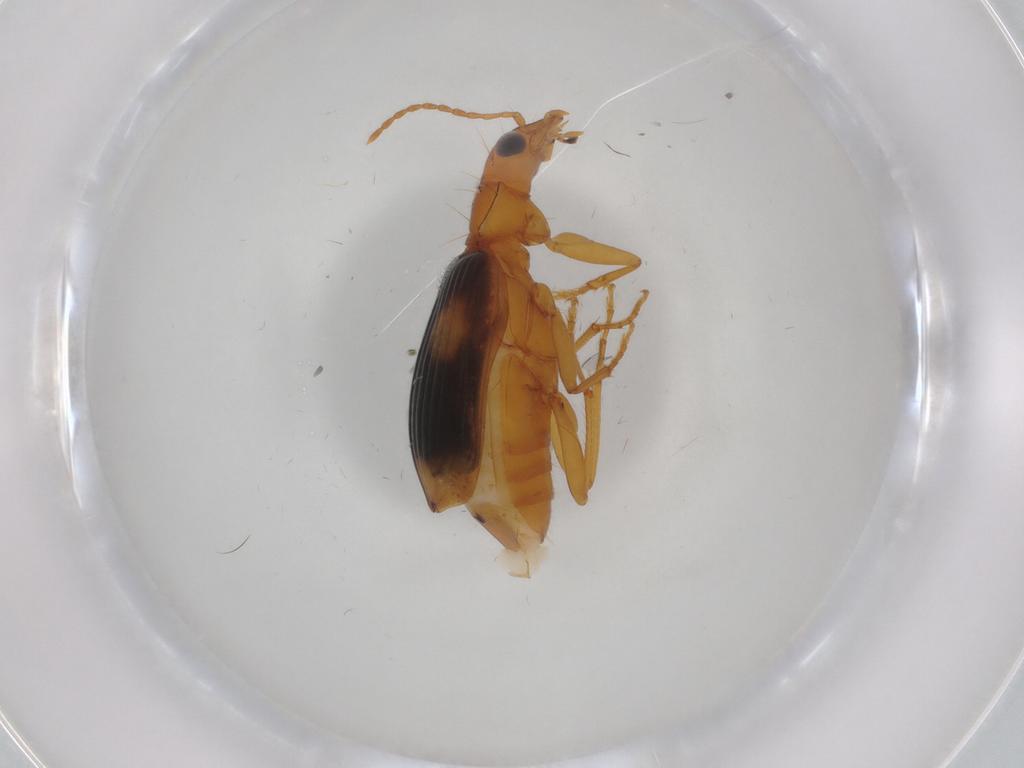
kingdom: Animalia
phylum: Arthropoda
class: Insecta
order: Coleoptera
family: Carabidae
